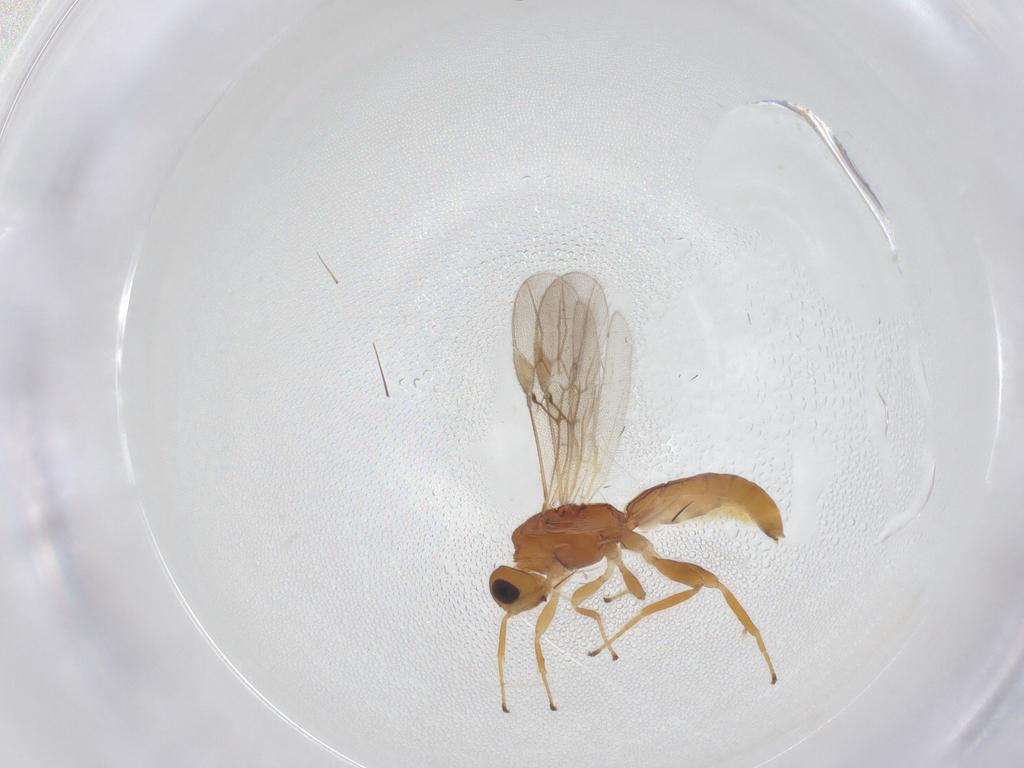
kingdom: Animalia
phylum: Arthropoda
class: Insecta
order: Hymenoptera
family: Braconidae
